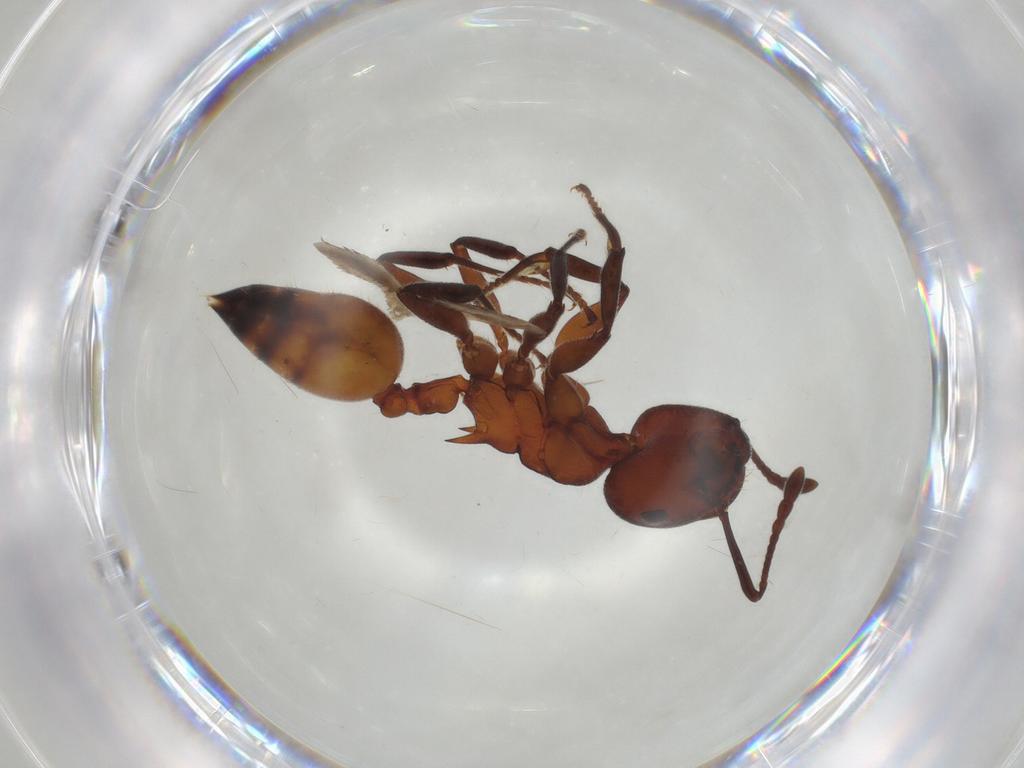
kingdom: Animalia
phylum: Arthropoda
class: Insecta
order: Hymenoptera
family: Formicidae
